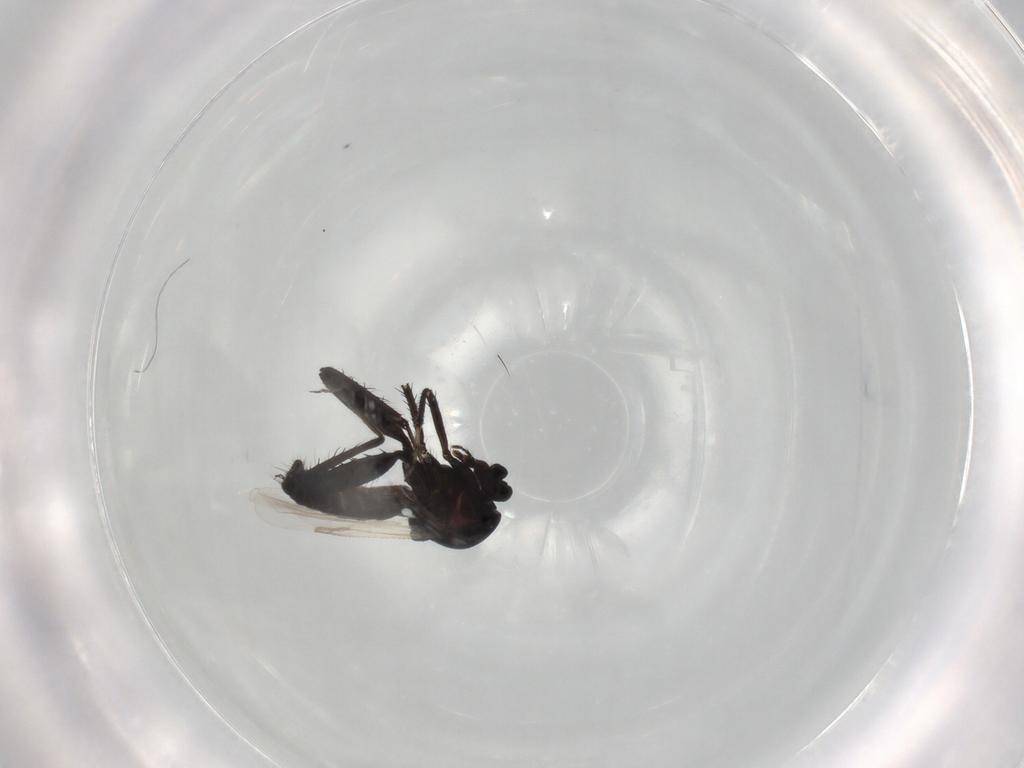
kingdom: Animalia
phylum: Arthropoda
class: Insecta
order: Diptera
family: Ceratopogonidae
